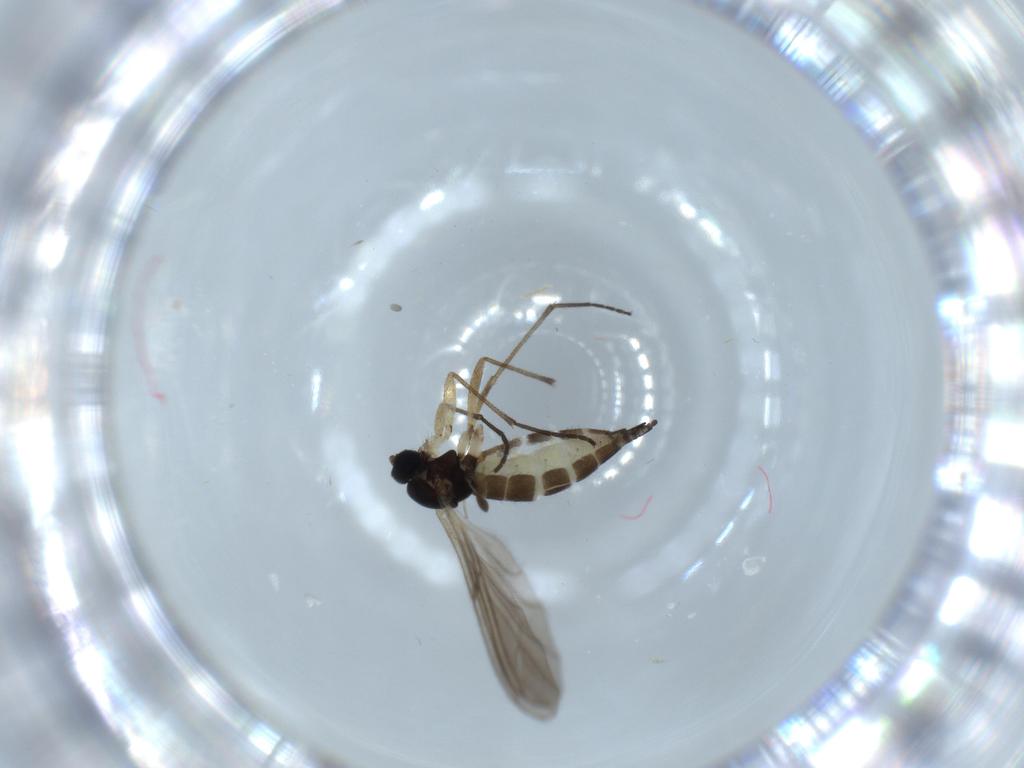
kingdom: Animalia
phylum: Arthropoda
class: Insecta
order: Diptera
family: Sciaridae
